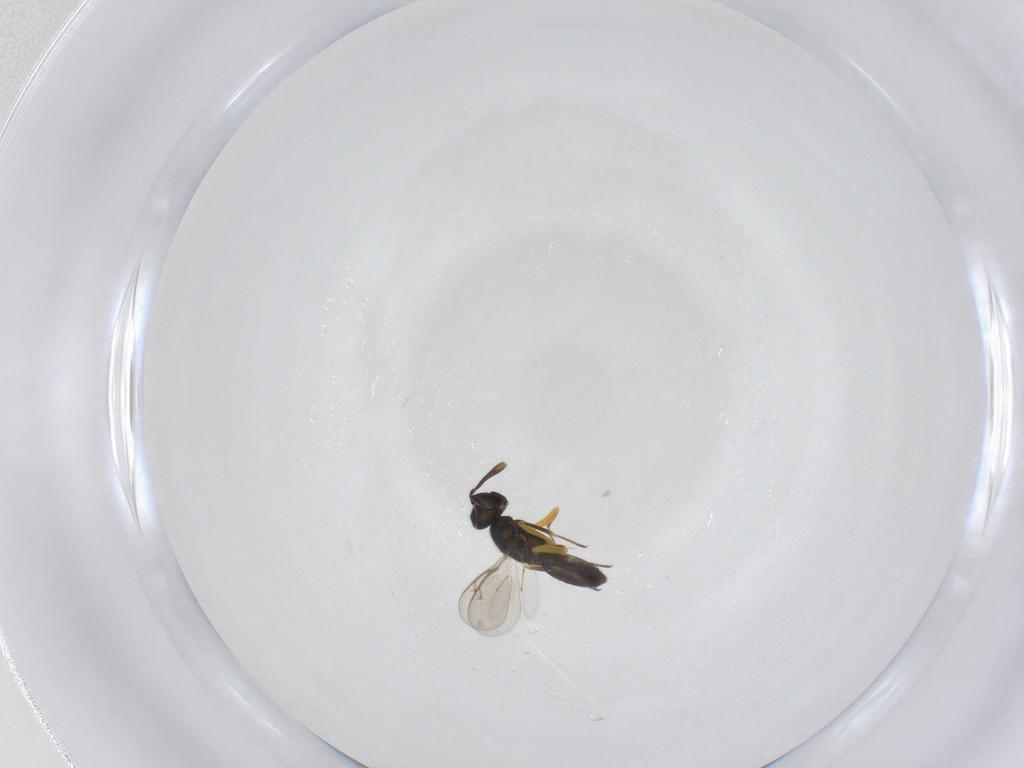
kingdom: Animalia
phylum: Arthropoda
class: Insecta
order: Hymenoptera
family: Eupelmidae
